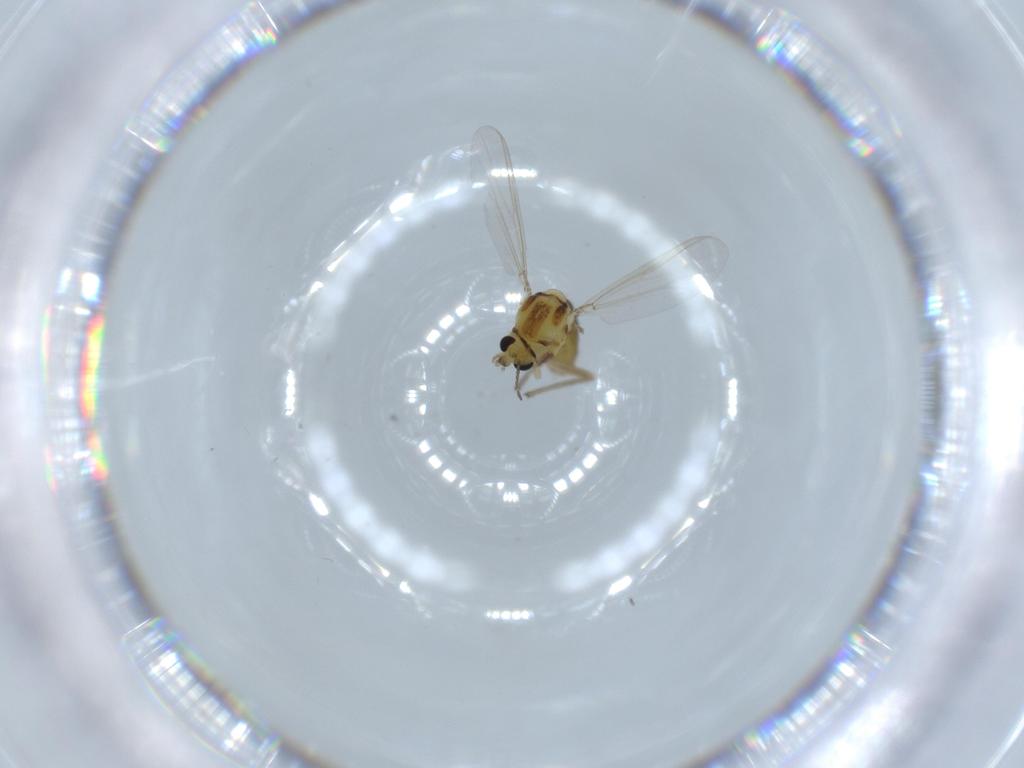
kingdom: Animalia
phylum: Arthropoda
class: Insecta
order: Diptera
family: Chironomidae
